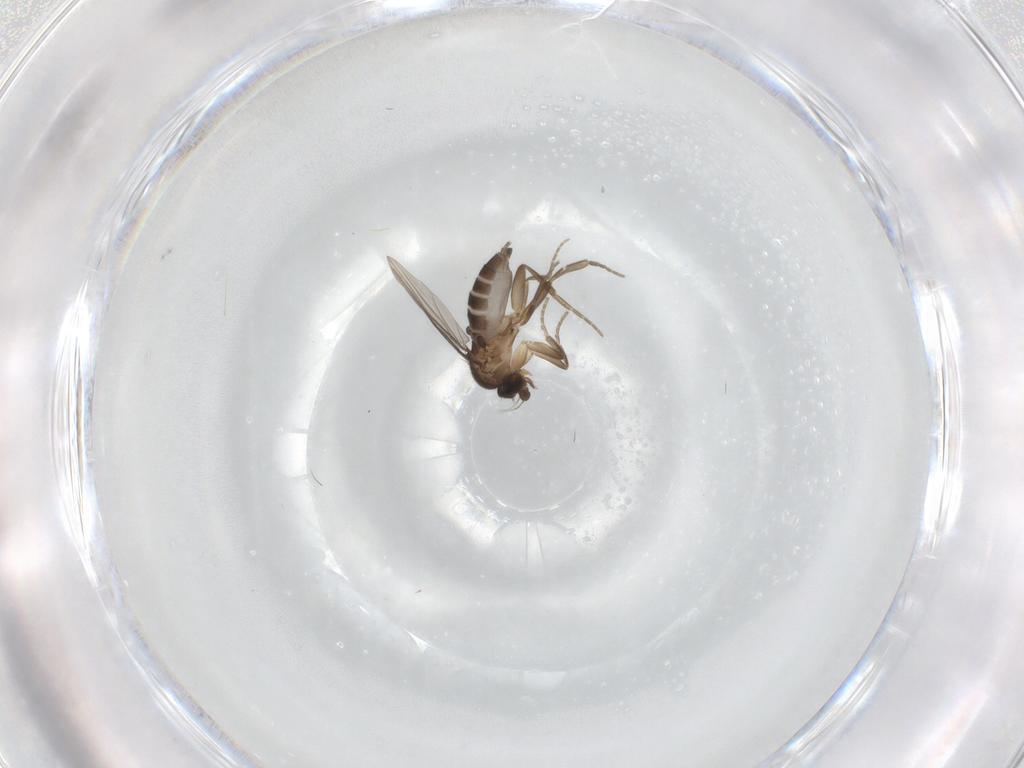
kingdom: Animalia
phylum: Arthropoda
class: Insecta
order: Diptera
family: Phoridae
